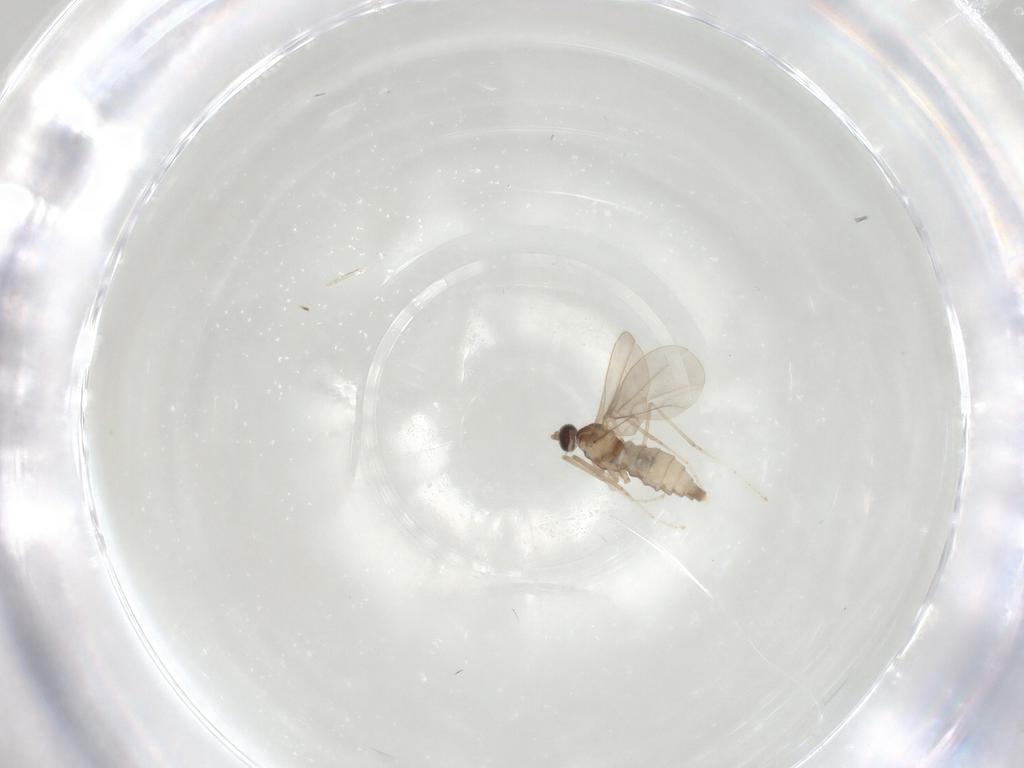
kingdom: Animalia
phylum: Arthropoda
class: Insecta
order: Diptera
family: Cecidomyiidae
